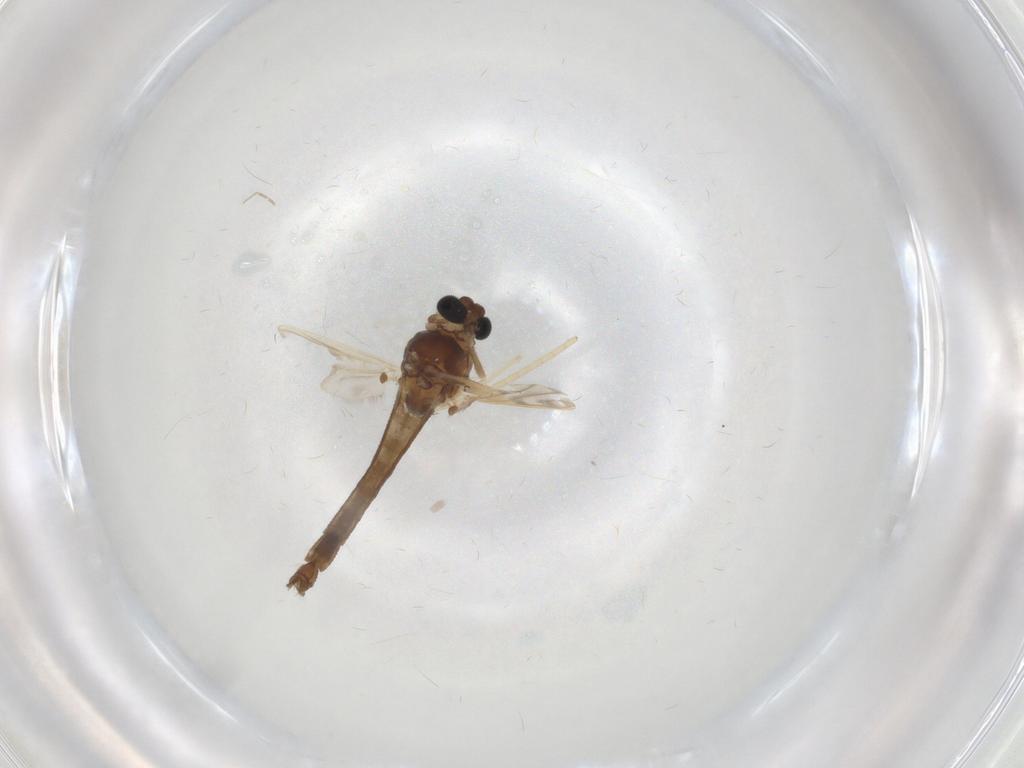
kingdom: Animalia
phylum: Arthropoda
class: Insecta
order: Diptera
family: Chironomidae
